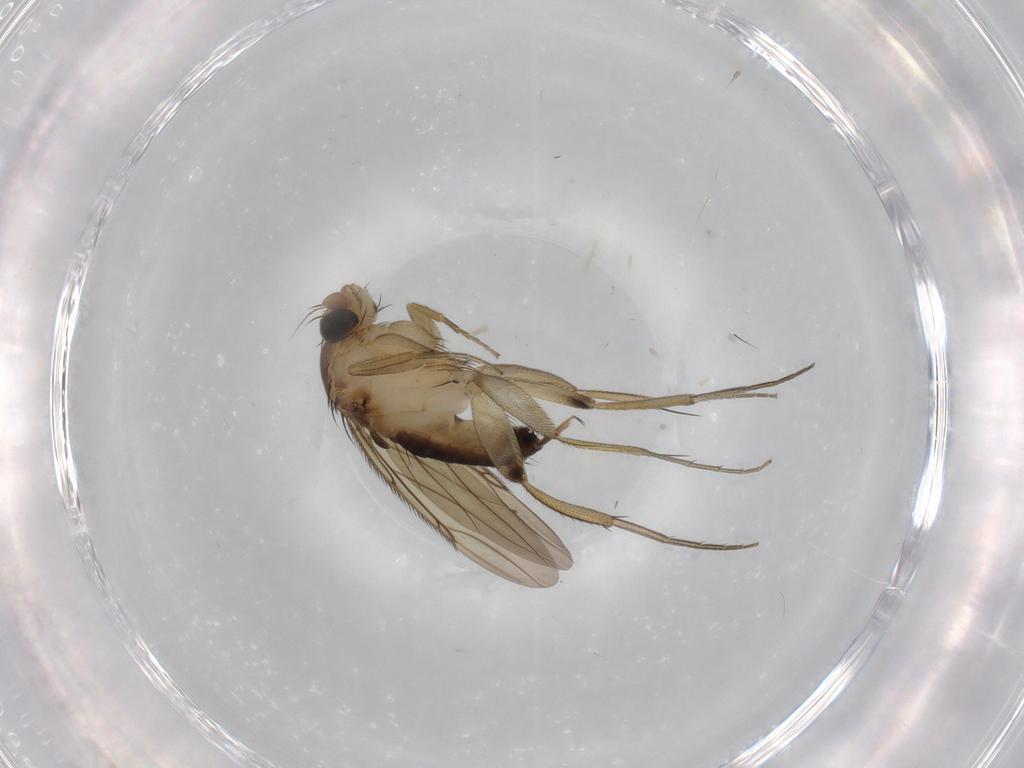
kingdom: Animalia
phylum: Arthropoda
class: Insecta
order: Diptera
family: Phoridae
